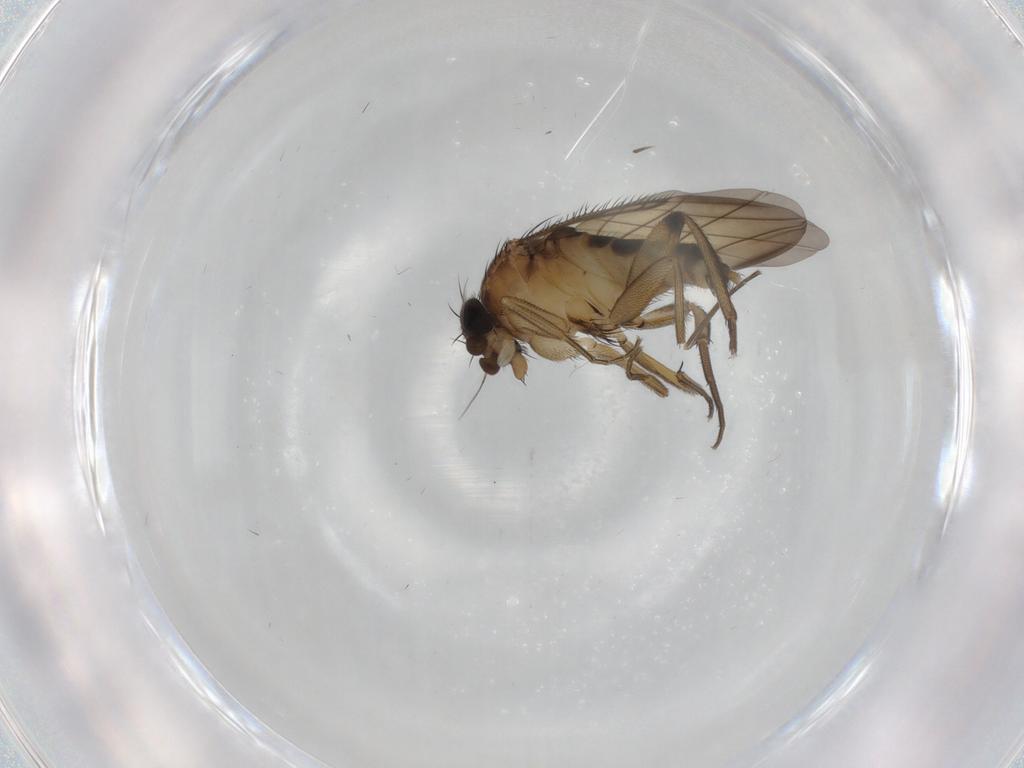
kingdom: Animalia
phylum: Arthropoda
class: Insecta
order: Diptera
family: Phoridae
